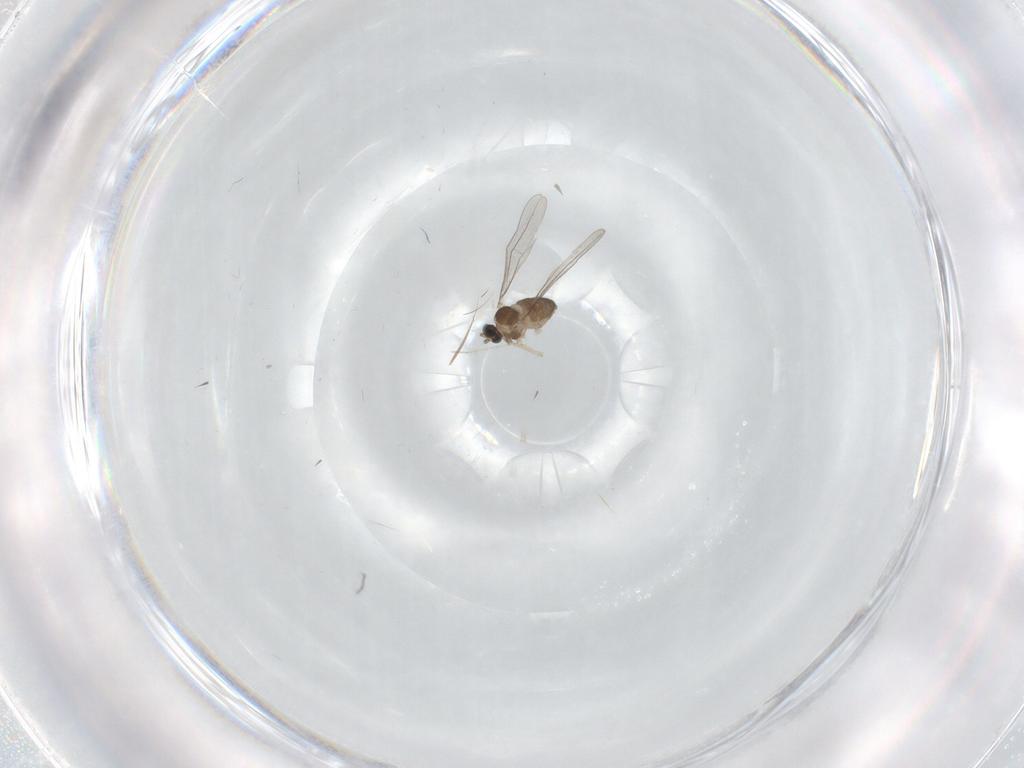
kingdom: Animalia
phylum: Arthropoda
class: Insecta
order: Diptera
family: Cecidomyiidae
